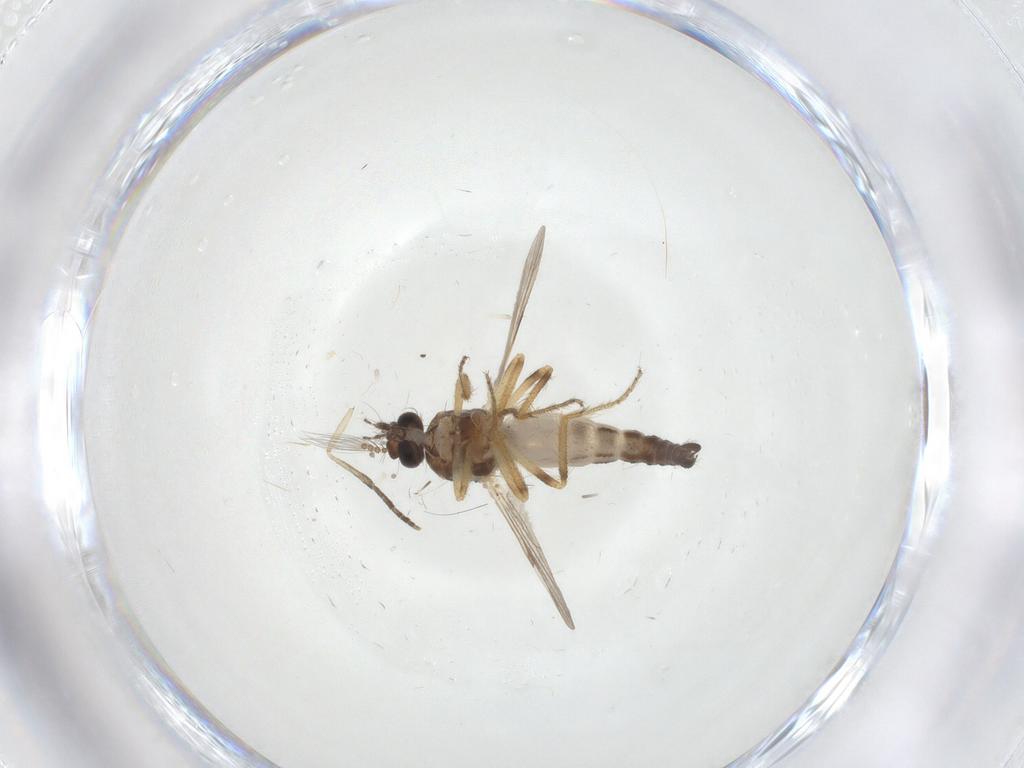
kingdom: Animalia
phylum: Arthropoda
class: Insecta
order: Diptera
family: Ceratopogonidae
